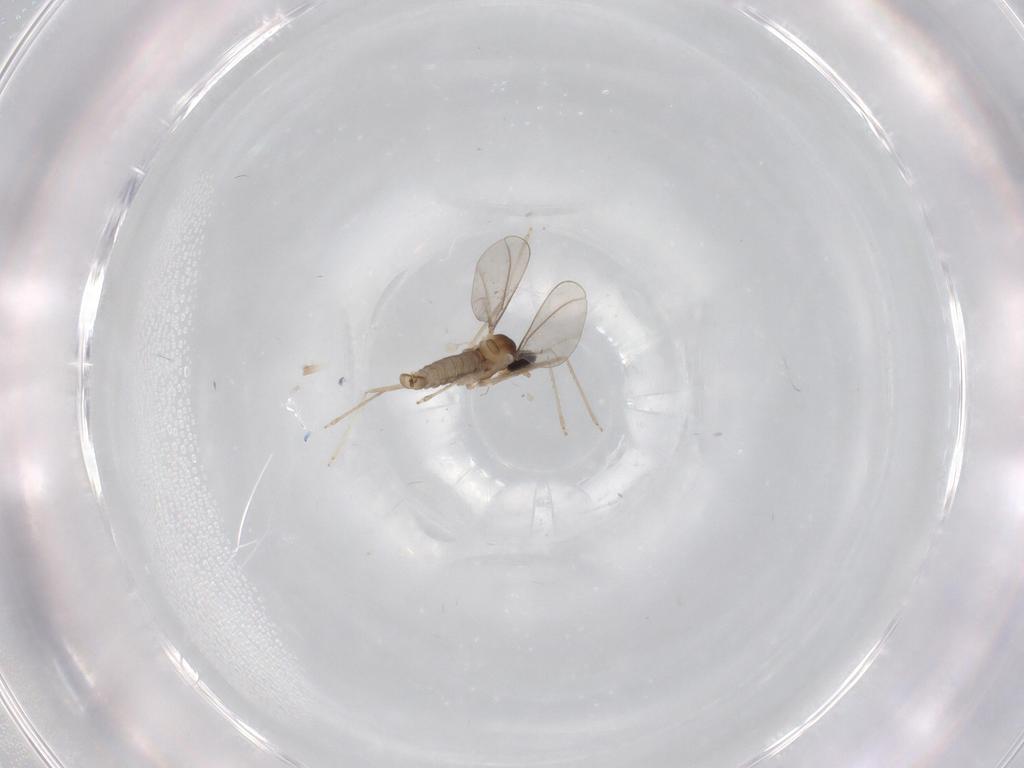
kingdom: Animalia
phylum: Arthropoda
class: Insecta
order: Diptera
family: Cecidomyiidae
